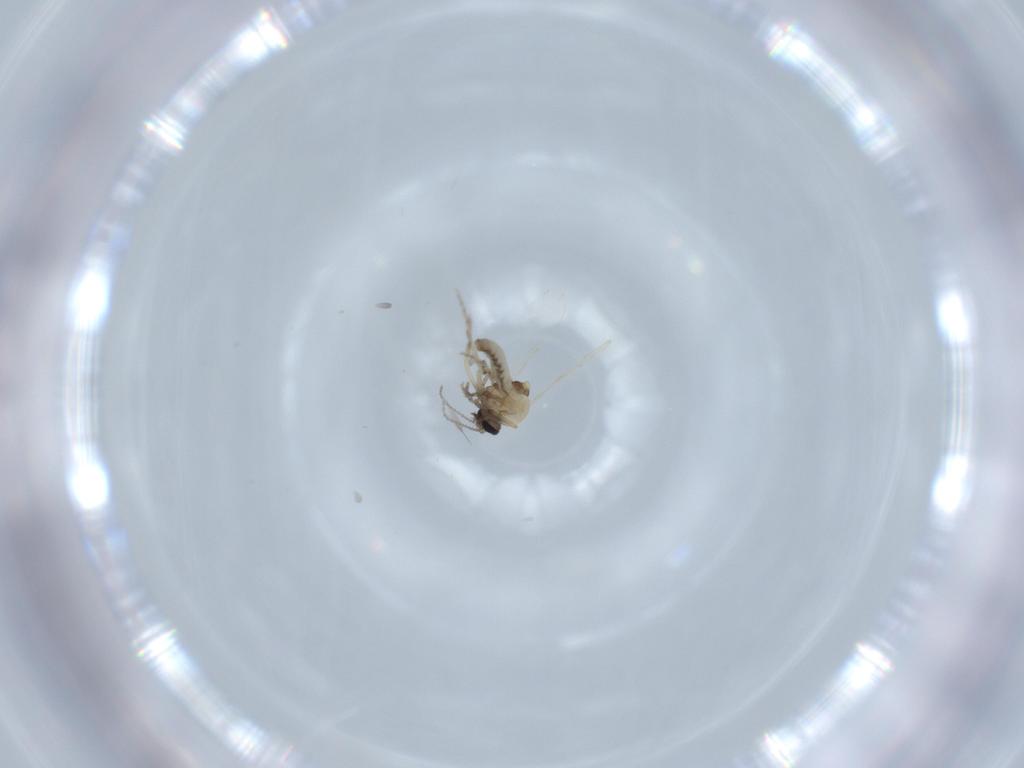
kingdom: Animalia
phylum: Arthropoda
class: Insecta
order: Diptera
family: Ceratopogonidae
